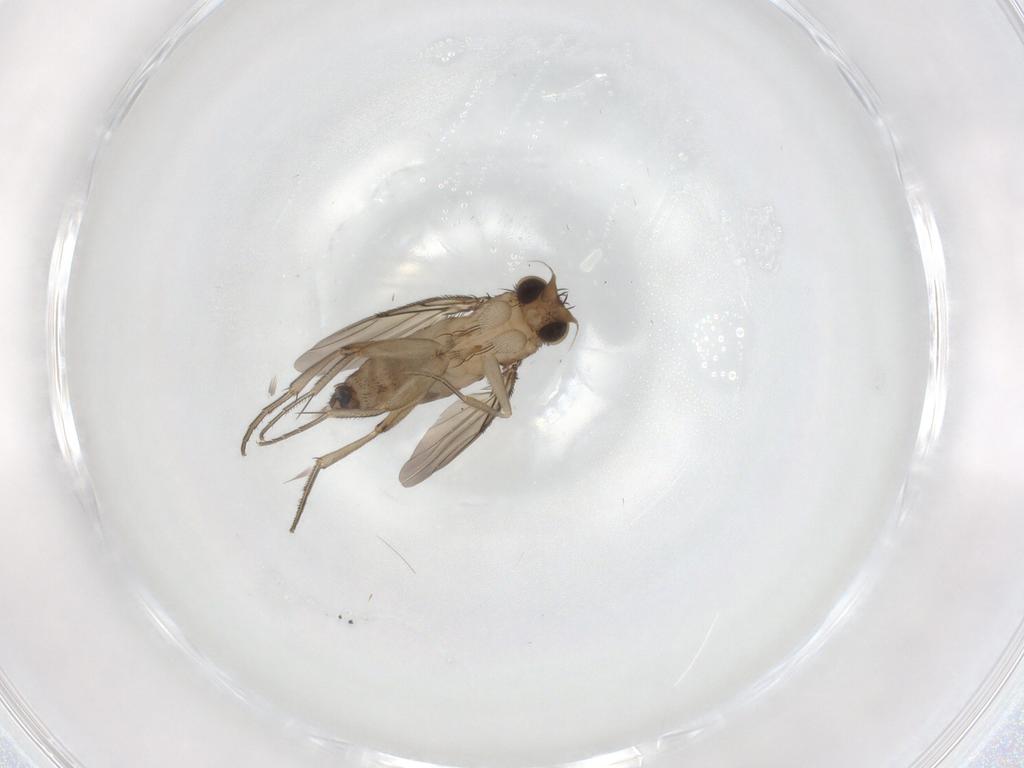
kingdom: Animalia
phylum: Arthropoda
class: Insecta
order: Diptera
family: Phoridae
